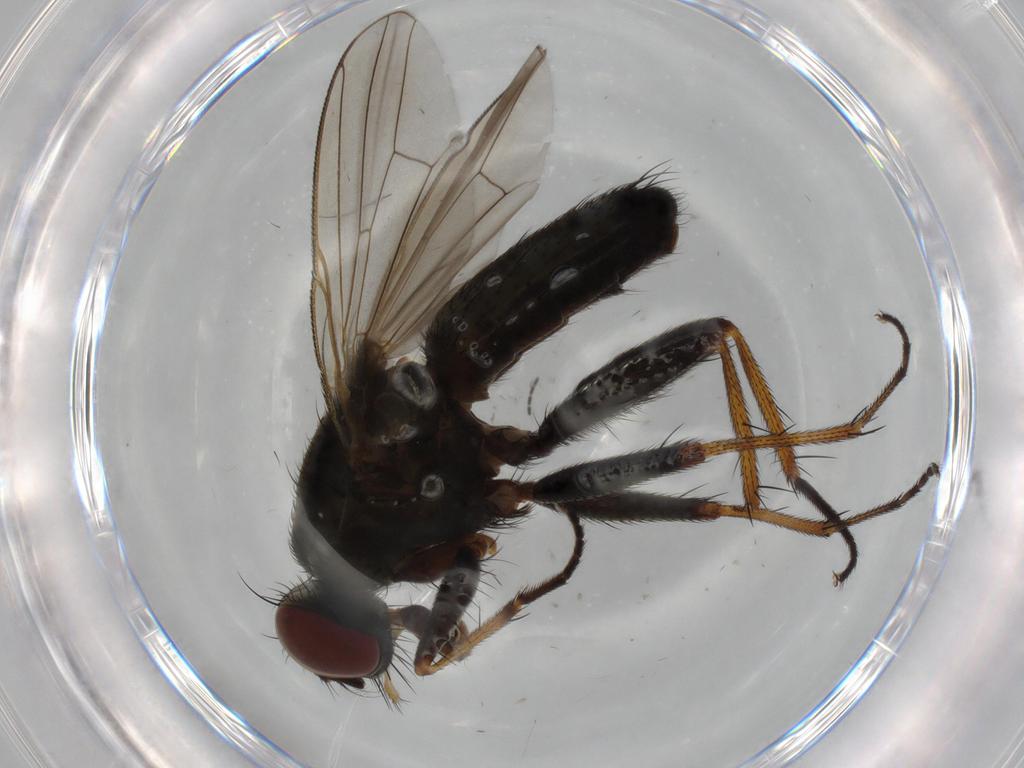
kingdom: Animalia
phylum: Arthropoda
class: Insecta
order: Diptera
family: Muscidae
